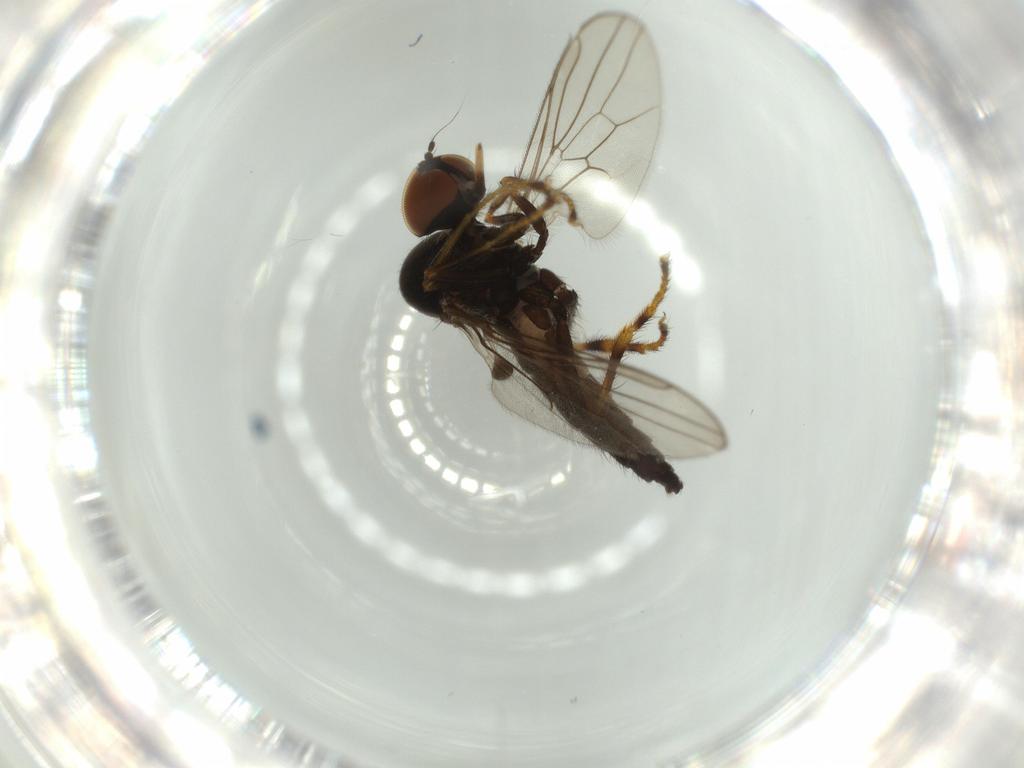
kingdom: Animalia
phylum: Arthropoda
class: Insecta
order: Diptera
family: Hybotidae
